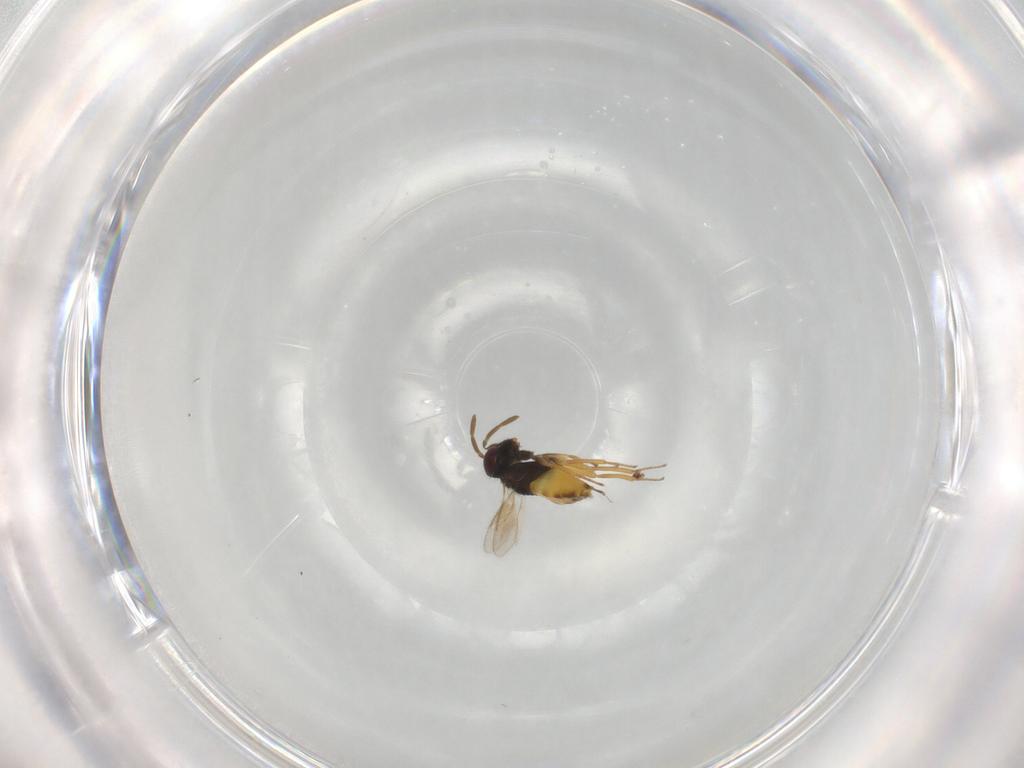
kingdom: Animalia
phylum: Arthropoda
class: Insecta
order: Hymenoptera
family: Aphelinidae
